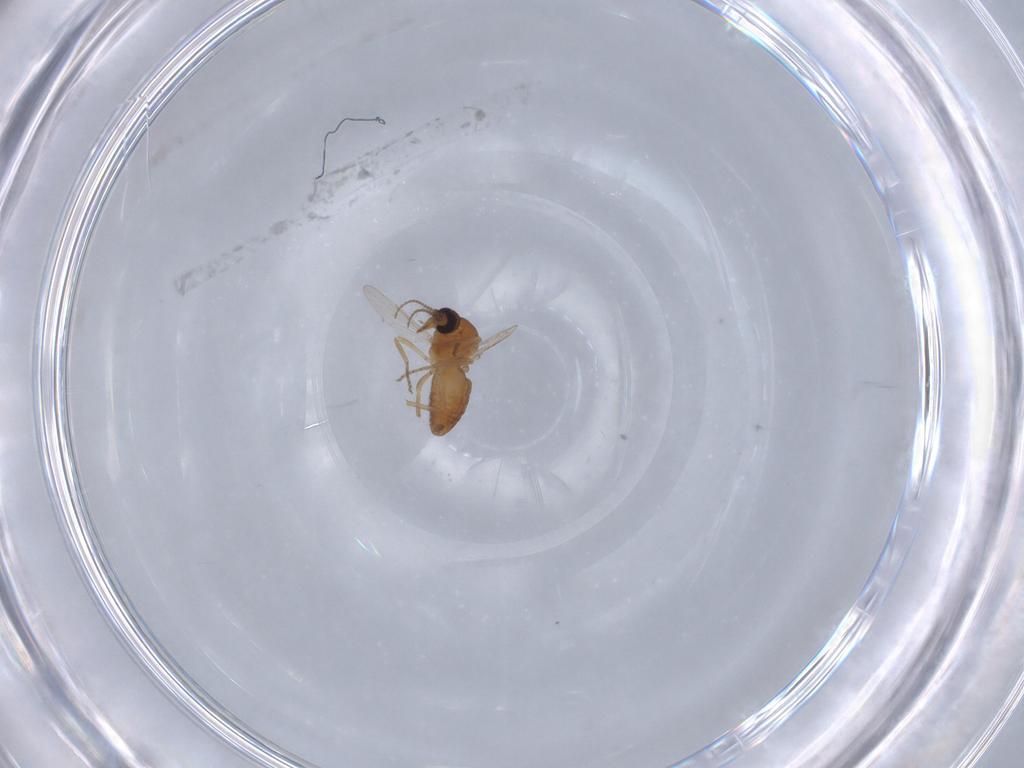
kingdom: Animalia
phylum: Arthropoda
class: Insecta
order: Diptera
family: Ceratopogonidae
